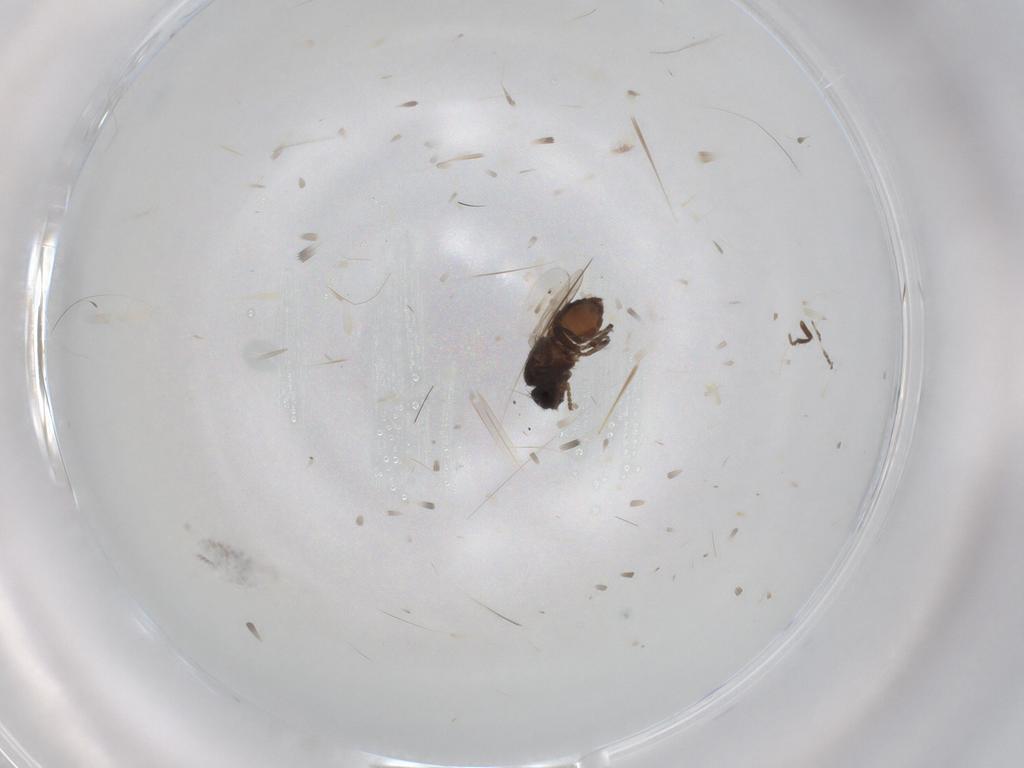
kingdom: Animalia
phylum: Arthropoda
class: Insecta
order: Diptera
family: Sphaeroceridae
